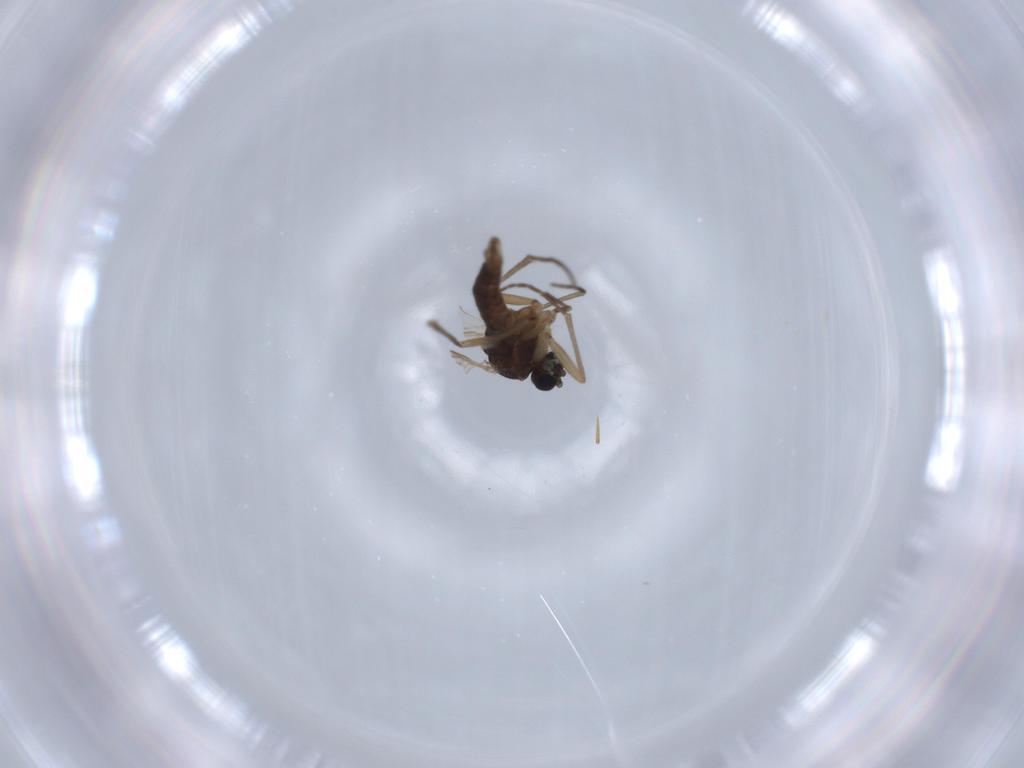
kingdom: Animalia
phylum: Arthropoda
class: Insecta
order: Diptera
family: Sciaridae
